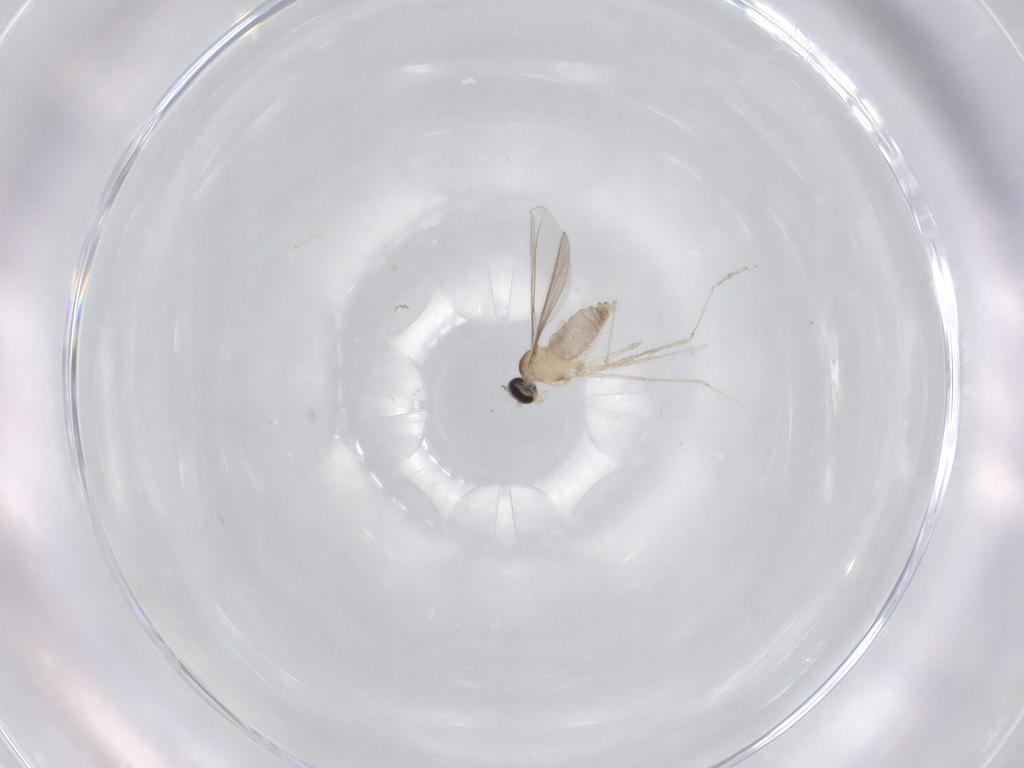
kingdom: Animalia
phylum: Arthropoda
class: Insecta
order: Diptera
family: Cecidomyiidae
